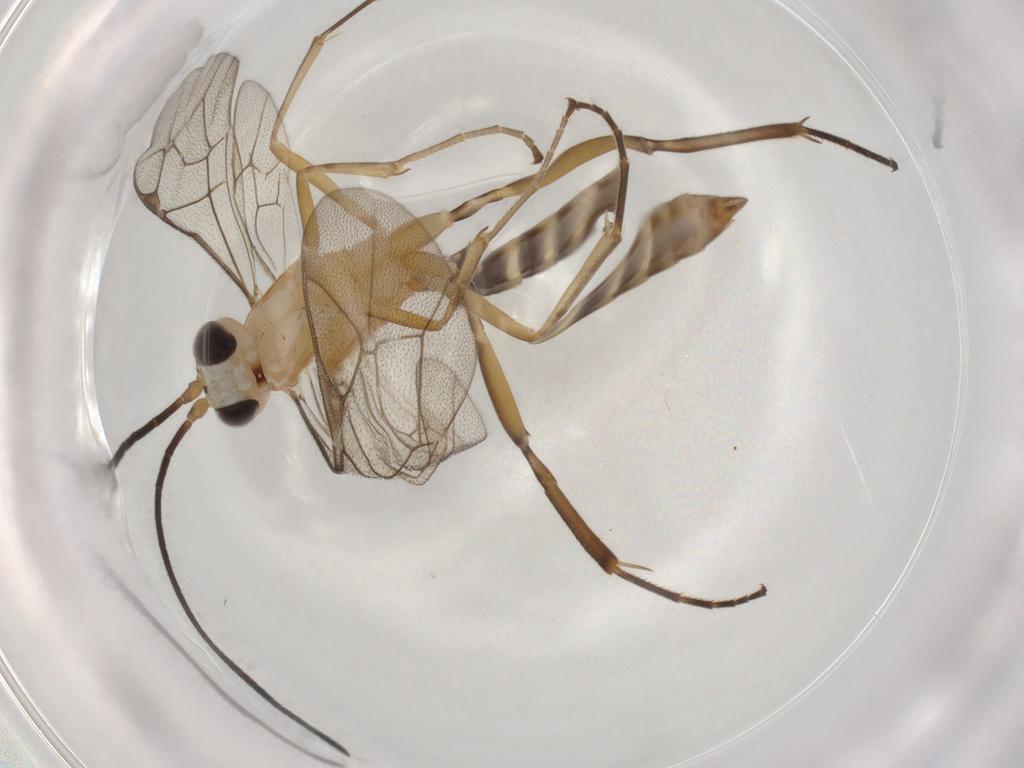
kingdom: Animalia
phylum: Arthropoda
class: Insecta
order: Hymenoptera
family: Ichneumonidae
